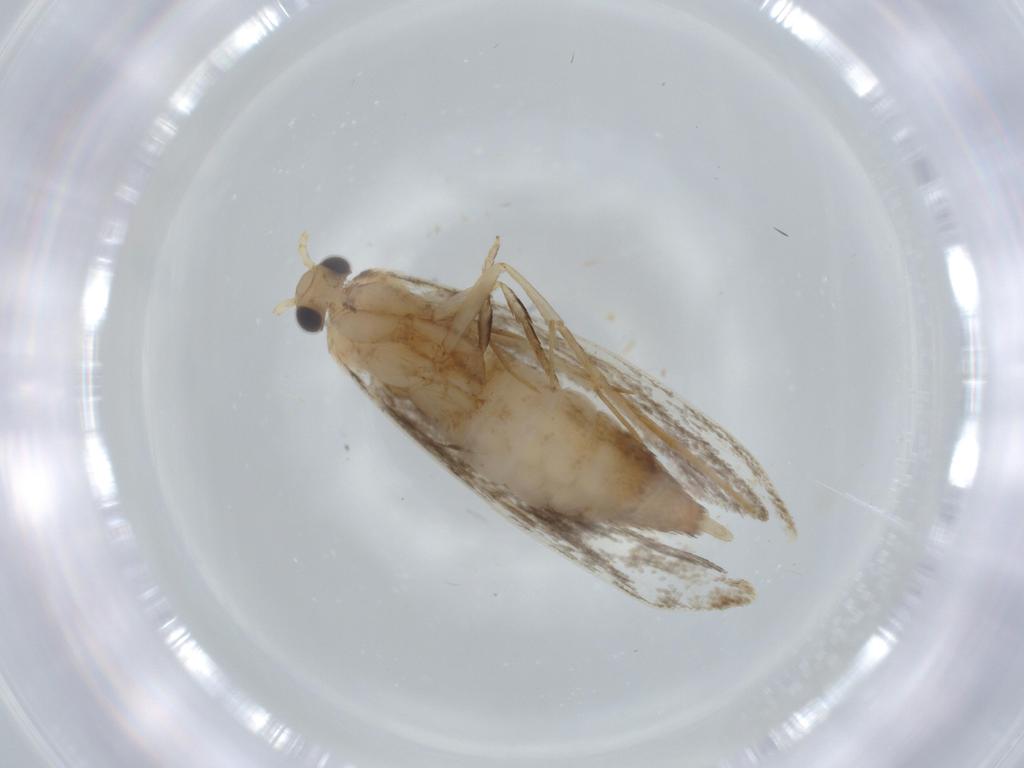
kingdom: Animalia
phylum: Arthropoda
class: Insecta
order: Lepidoptera
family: Tineidae
